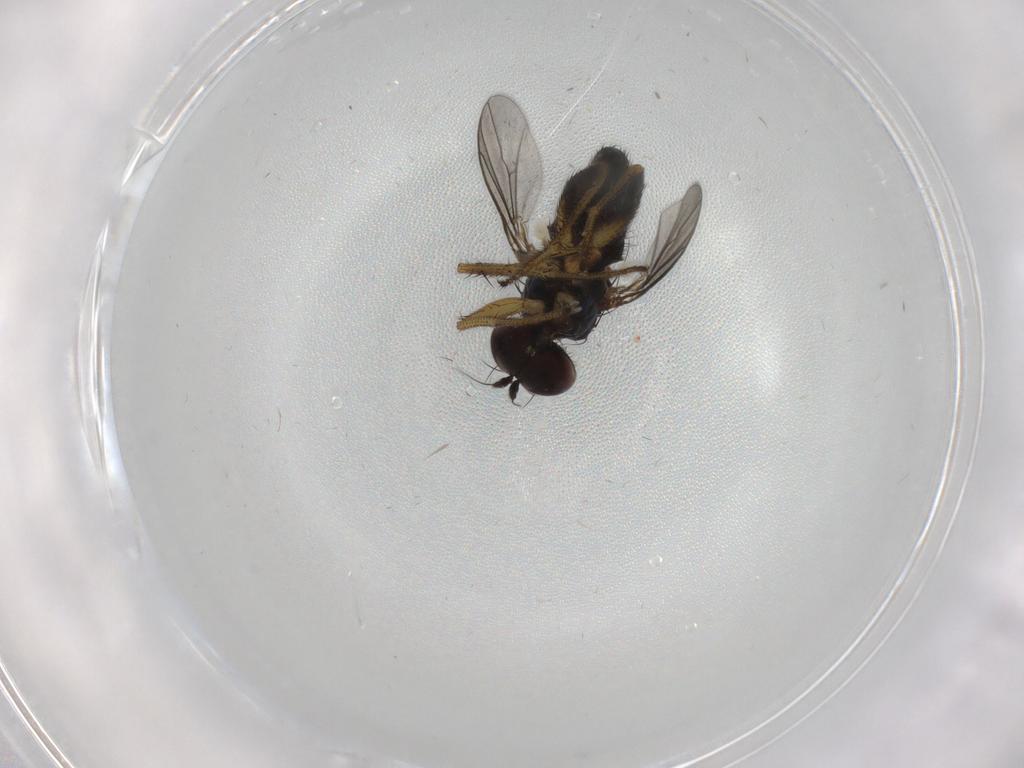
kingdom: Animalia
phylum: Arthropoda
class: Insecta
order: Diptera
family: Dolichopodidae
